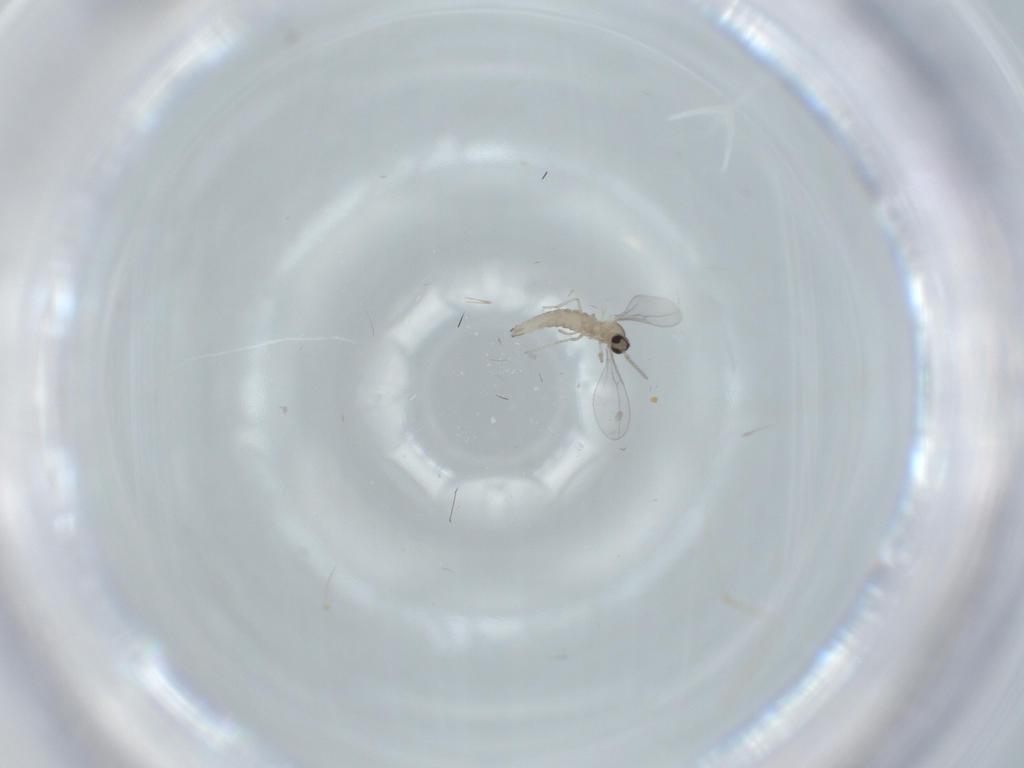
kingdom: Animalia
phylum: Arthropoda
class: Insecta
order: Diptera
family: Cecidomyiidae
